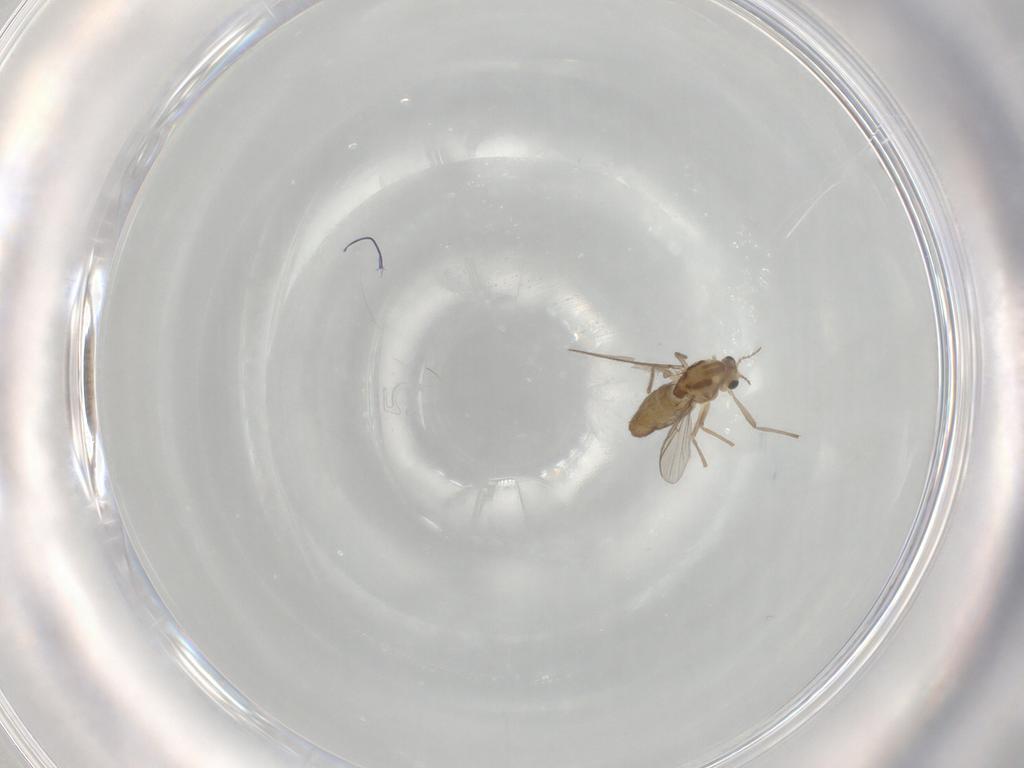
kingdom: Animalia
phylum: Arthropoda
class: Insecta
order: Diptera
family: Chironomidae
